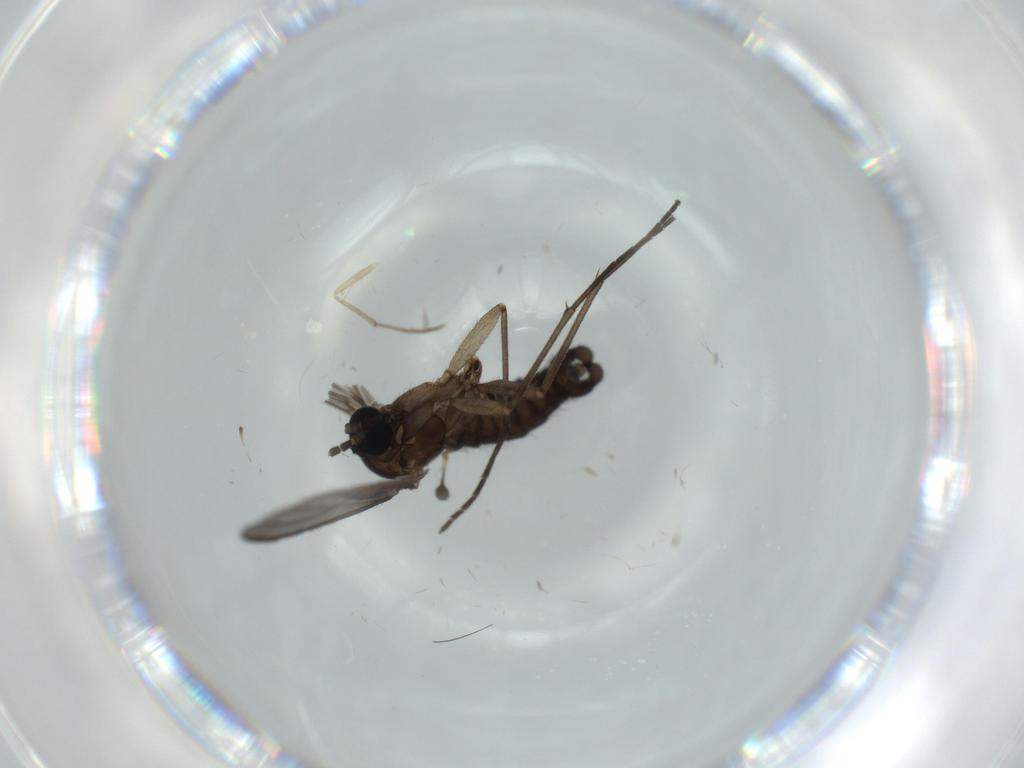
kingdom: Animalia
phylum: Arthropoda
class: Insecta
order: Diptera
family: Sciaridae
